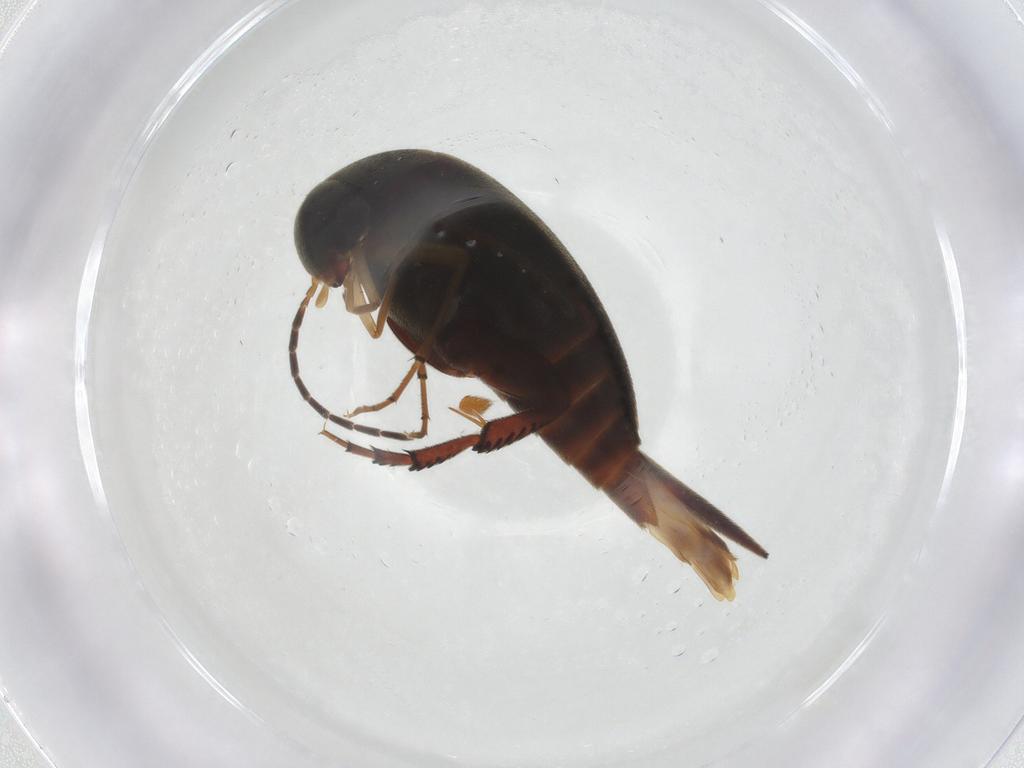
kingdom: Animalia
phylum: Arthropoda
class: Insecta
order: Coleoptera
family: Mordellidae
